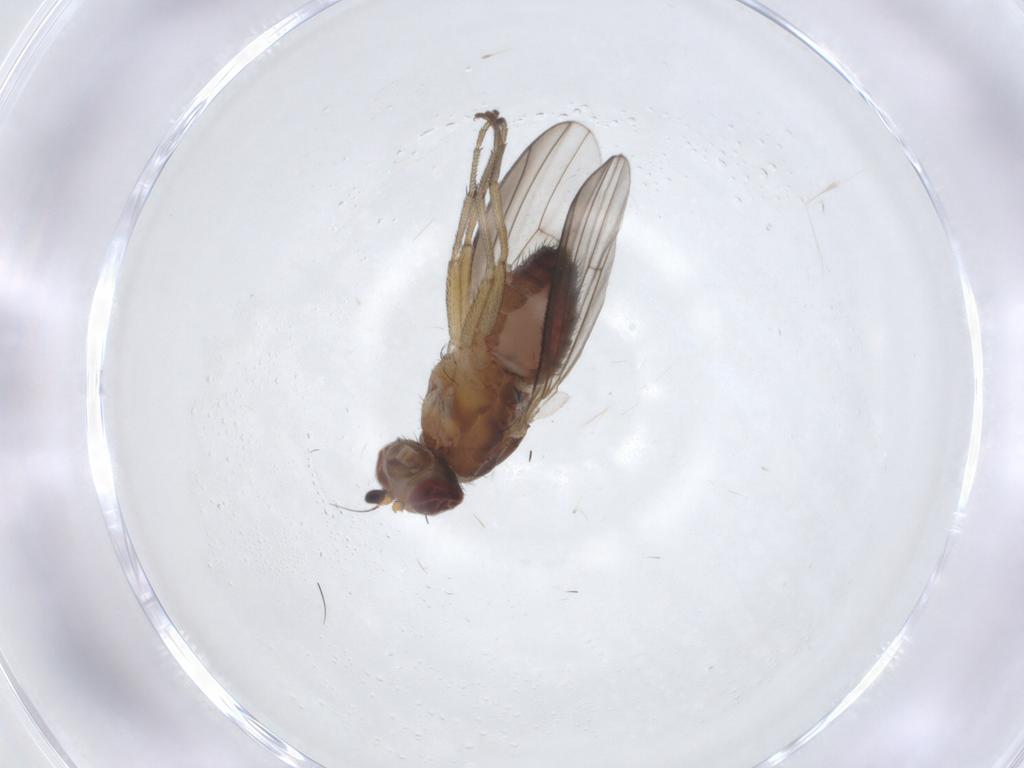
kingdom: Animalia
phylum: Arthropoda
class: Insecta
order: Diptera
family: Heleomyzidae
